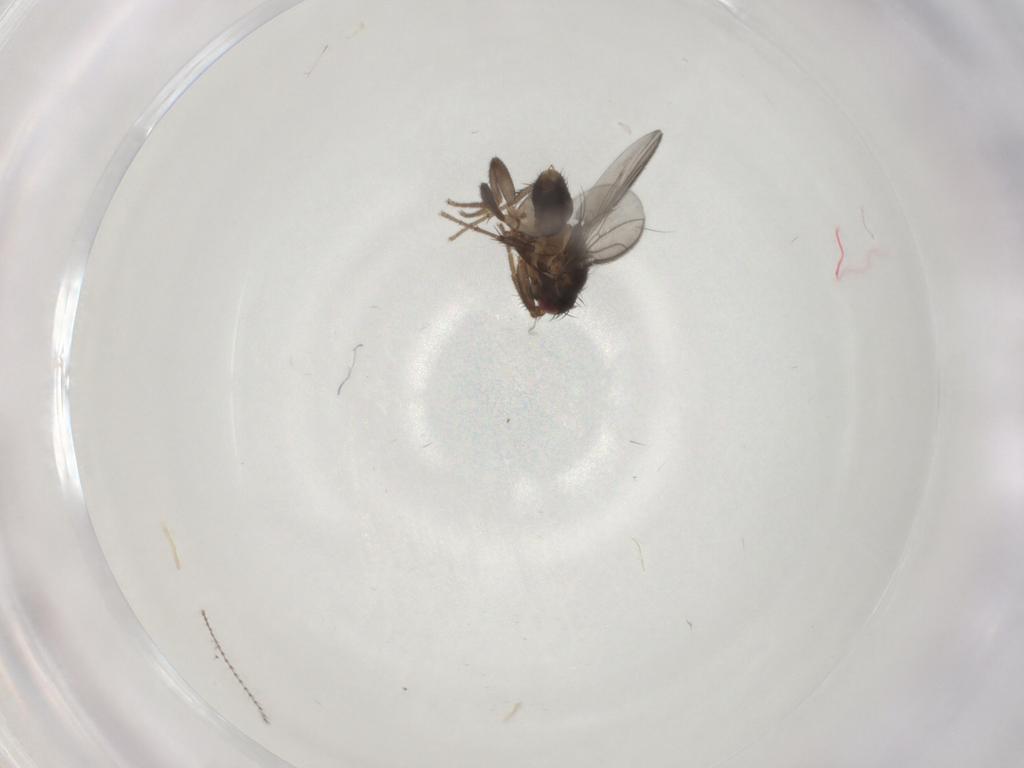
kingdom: Animalia
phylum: Arthropoda
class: Insecta
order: Diptera
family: Cecidomyiidae
